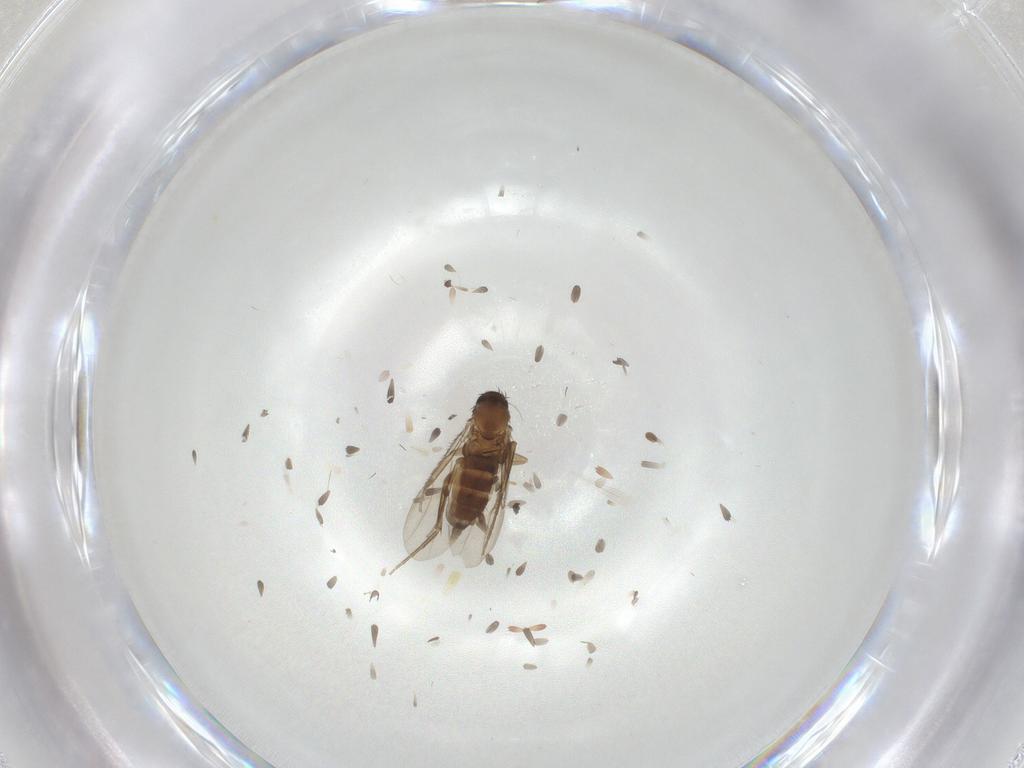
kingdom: Animalia
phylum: Arthropoda
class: Insecta
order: Diptera
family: Phoridae
